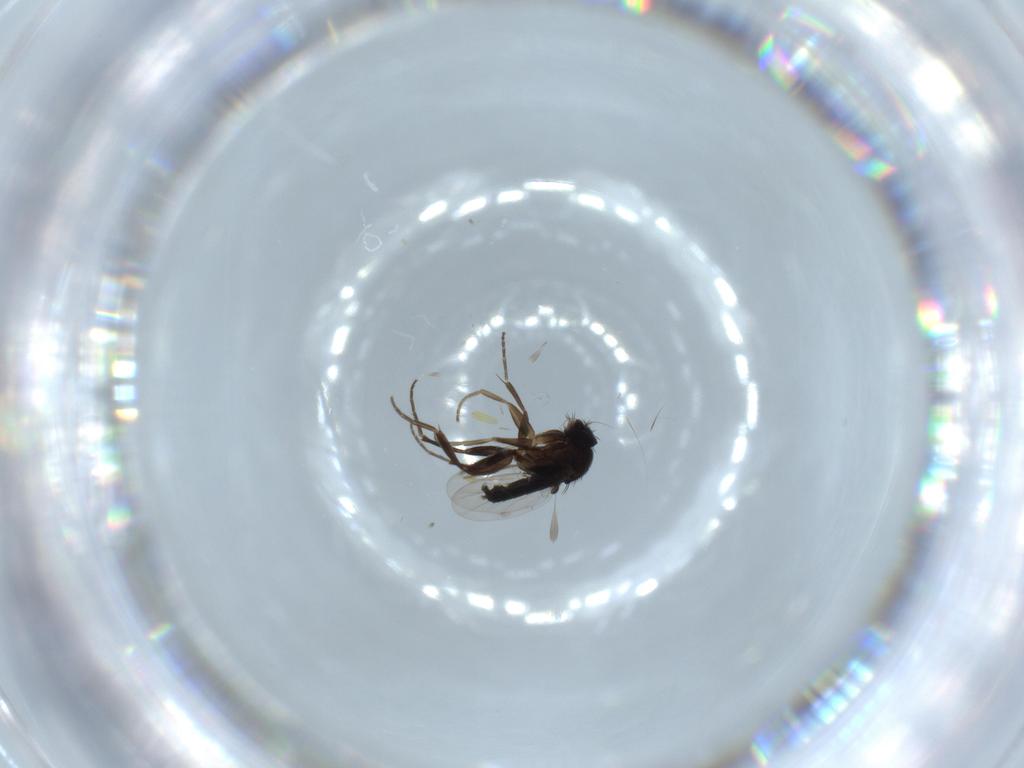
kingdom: Animalia
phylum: Arthropoda
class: Insecta
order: Diptera
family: Phoridae
